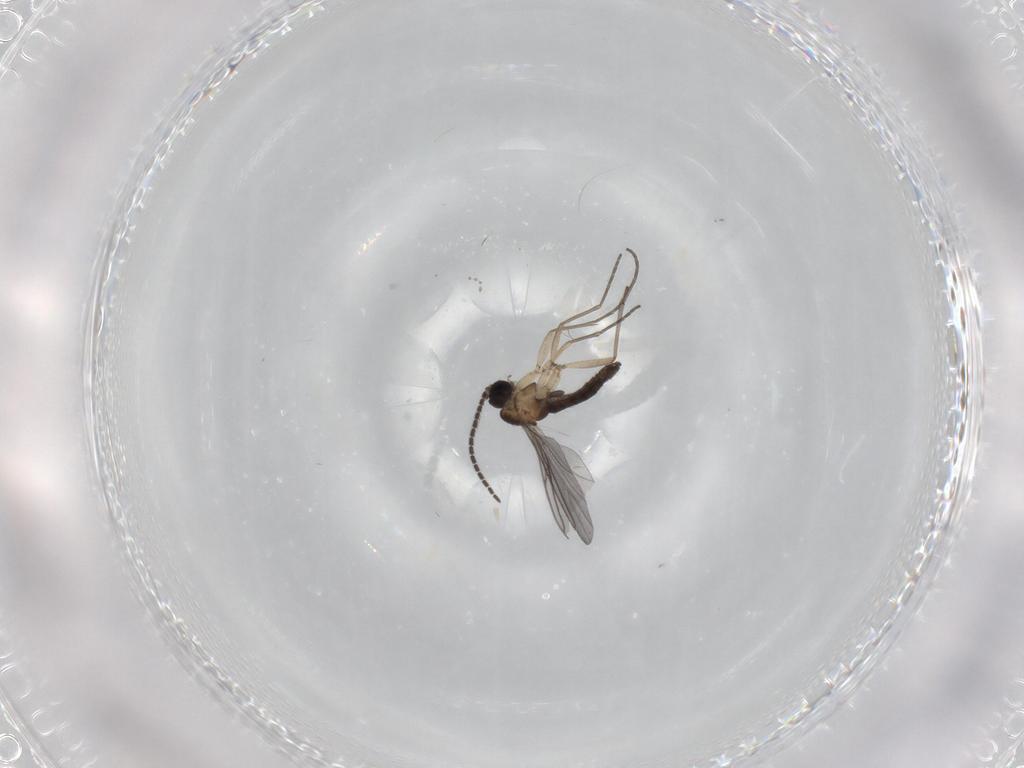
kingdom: Animalia
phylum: Arthropoda
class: Insecta
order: Diptera
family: Sciaridae
